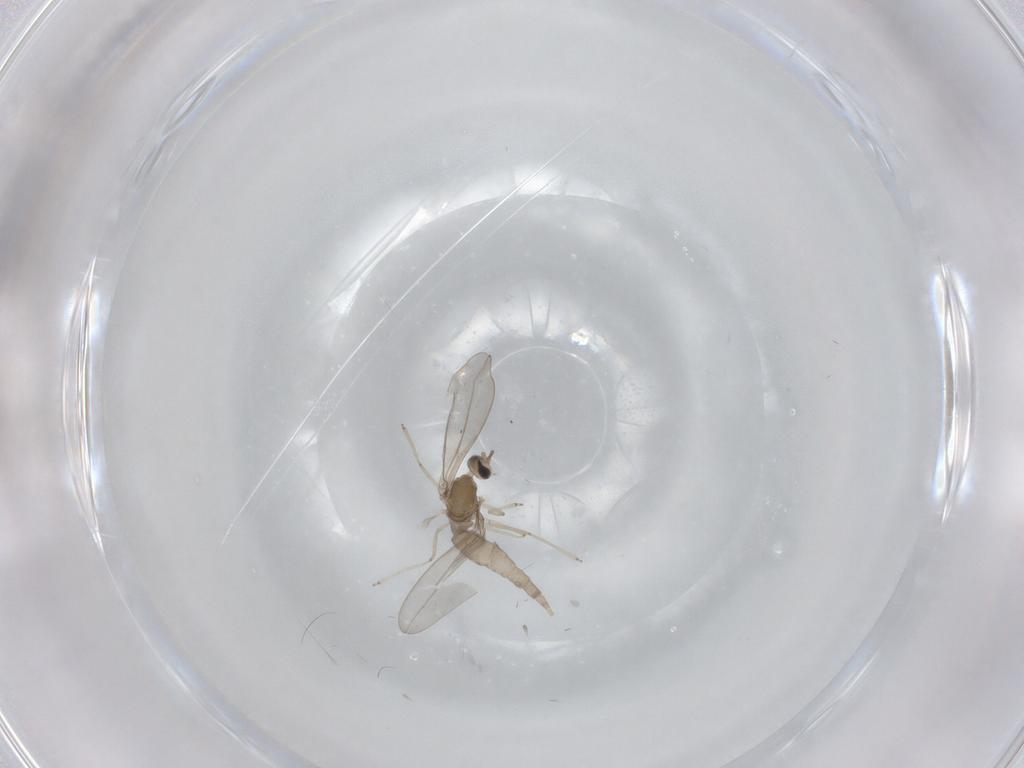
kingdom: Animalia
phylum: Arthropoda
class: Insecta
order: Diptera
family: Cecidomyiidae
